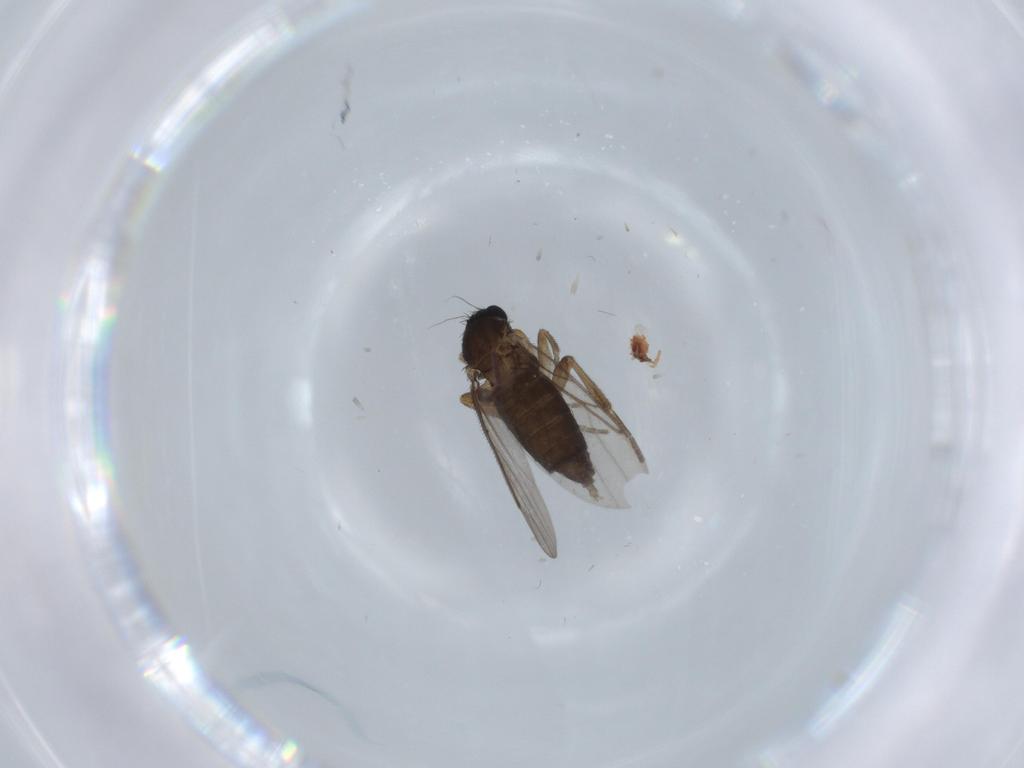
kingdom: Animalia
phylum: Arthropoda
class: Insecta
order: Diptera
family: Phoridae
